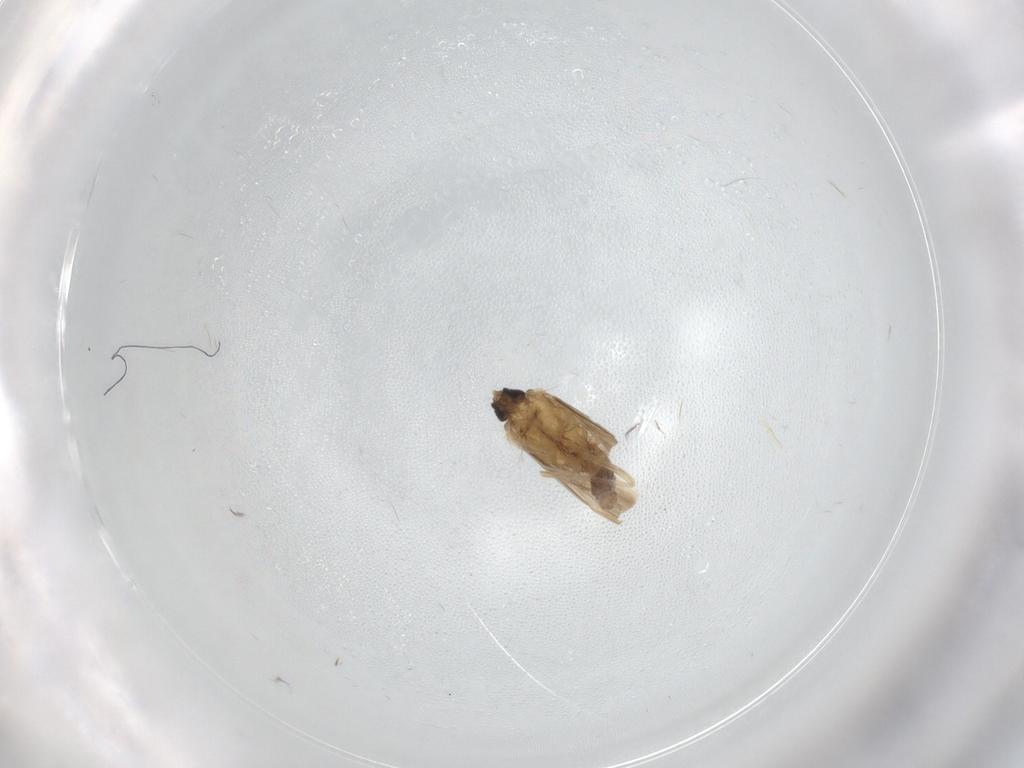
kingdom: Animalia
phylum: Arthropoda
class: Insecta
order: Trichoptera
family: Hydroptilidae
